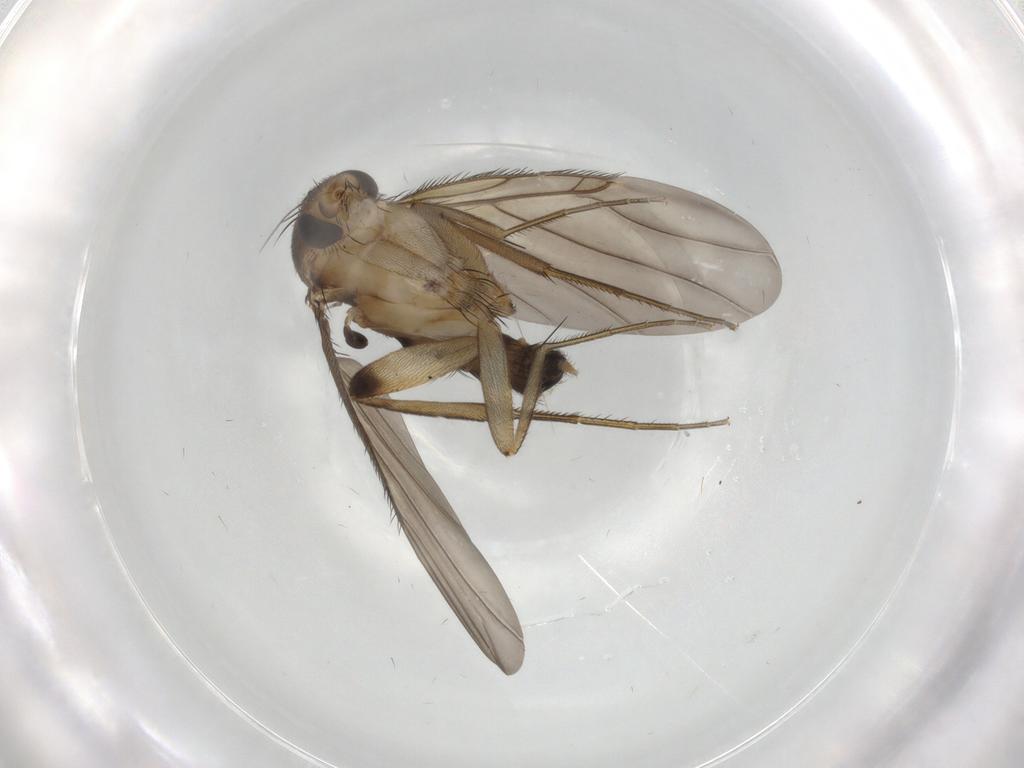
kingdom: Animalia
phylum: Arthropoda
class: Insecta
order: Diptera
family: Phoridae
